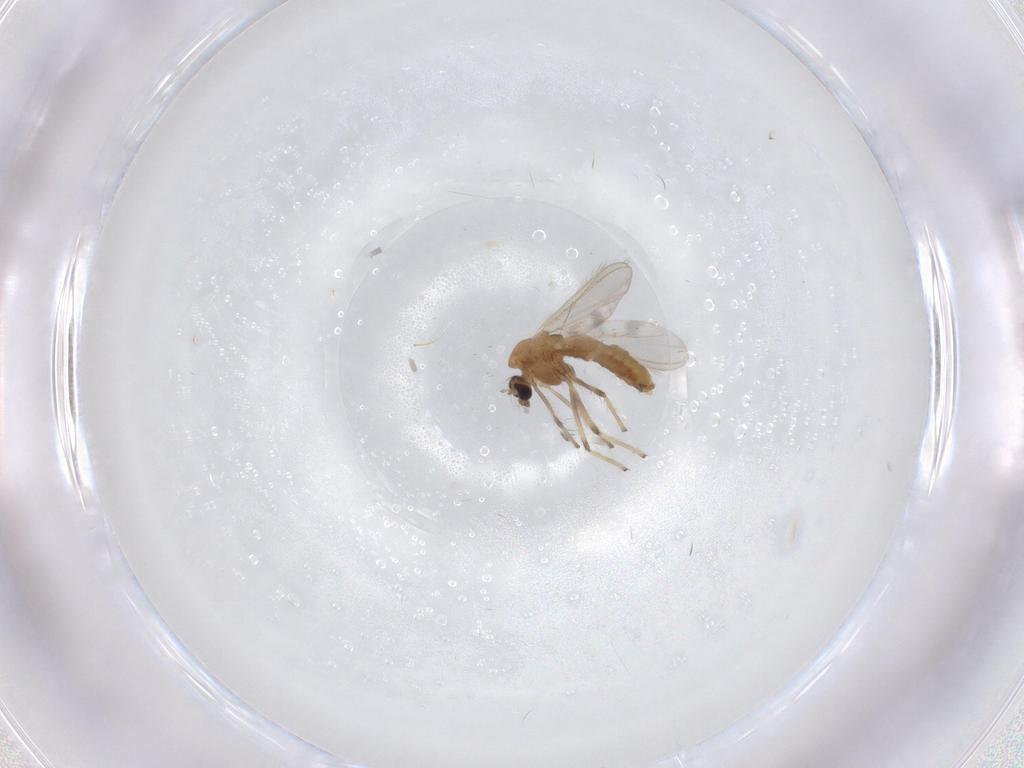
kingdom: Animalia
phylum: Arthropoda
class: Insecta
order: Diptera
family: Chironomidae
